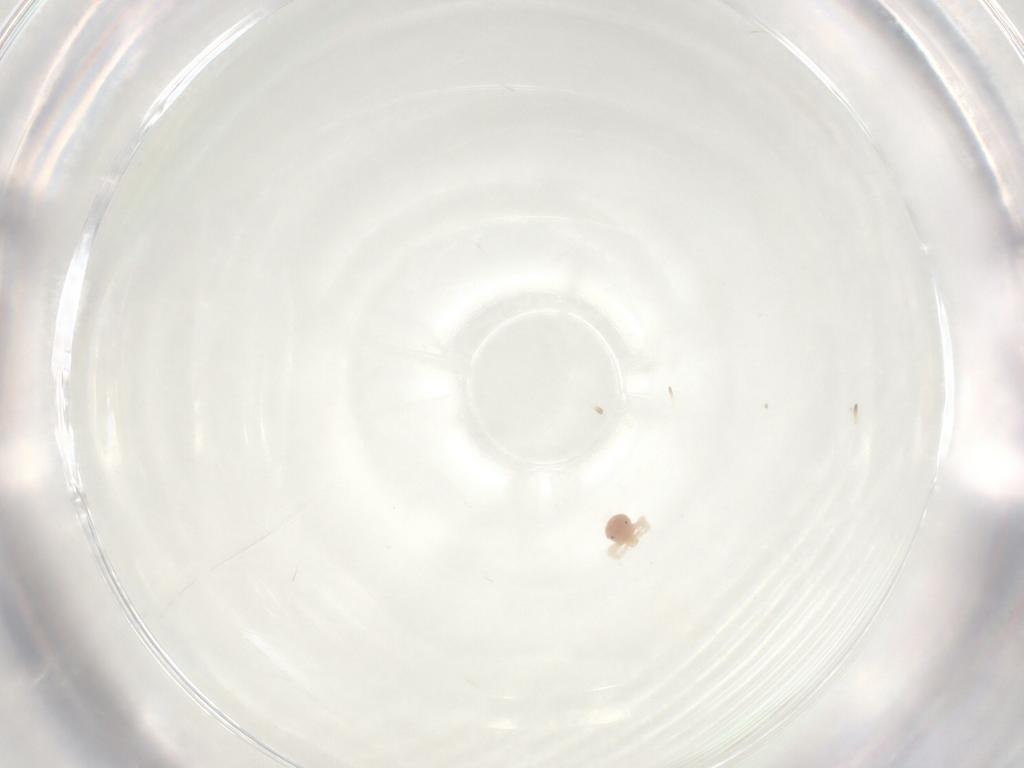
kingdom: Animalia
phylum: Arthropoda
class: Arachnida
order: Trombidiformes
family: Anystidae
